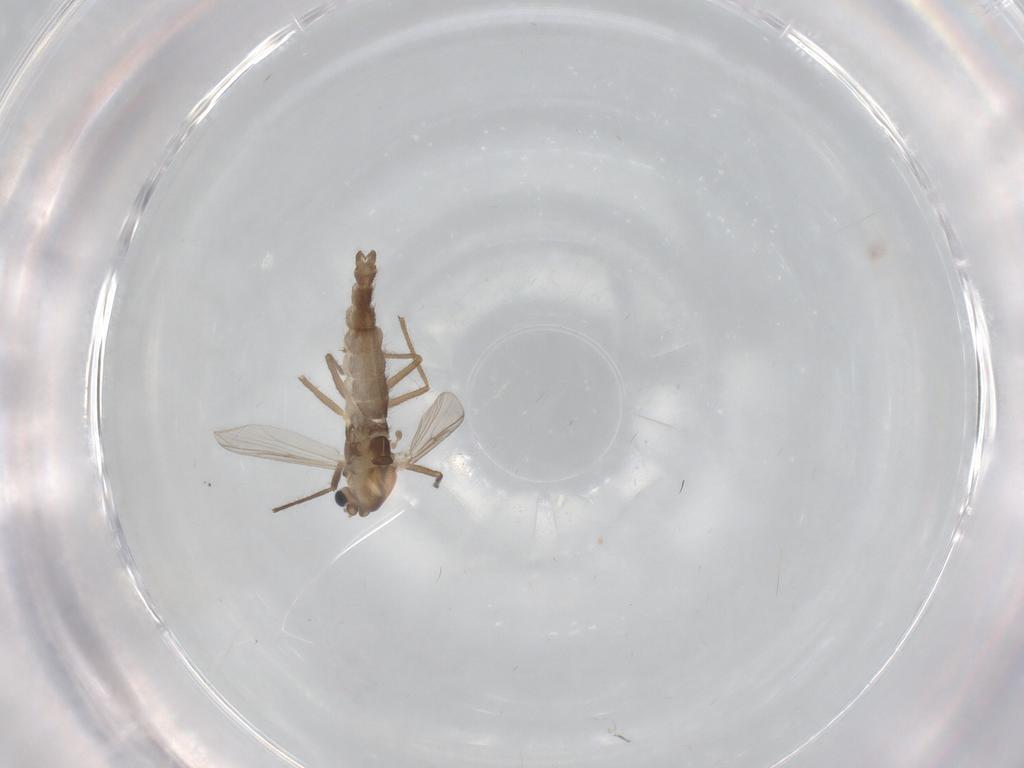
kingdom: Animalia
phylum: Arthropoda
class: Insecta
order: Diptera
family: Chironomidae
